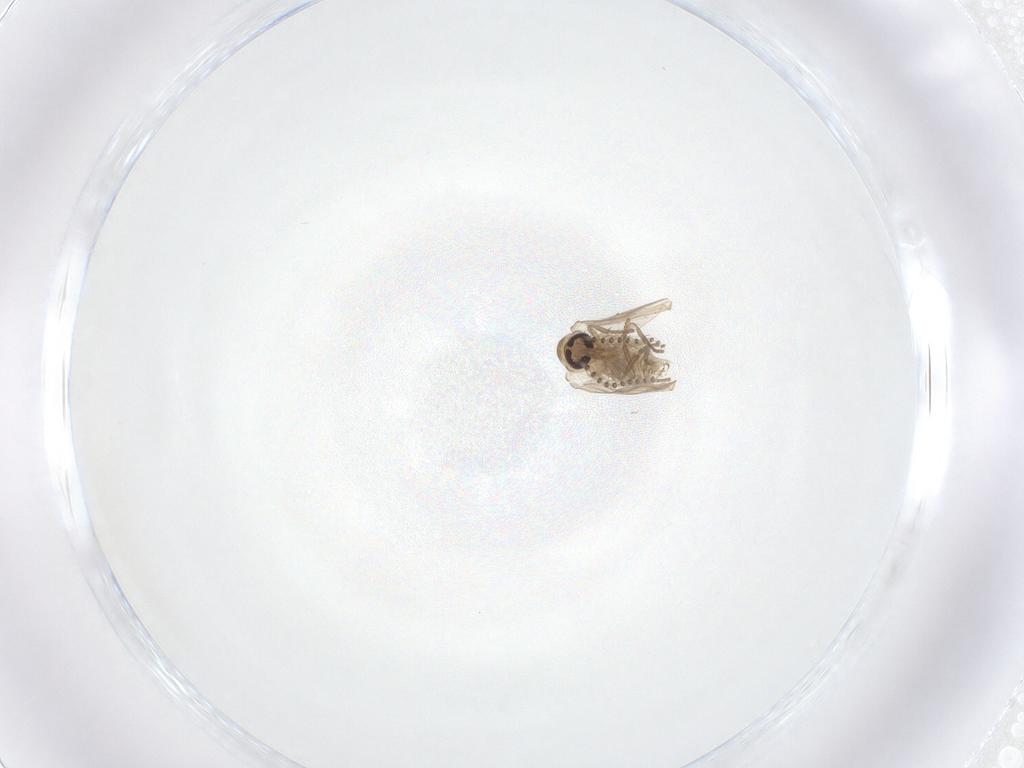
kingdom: Animalia
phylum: Arthropoda
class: Insecta
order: Diptera
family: Psychodidae
